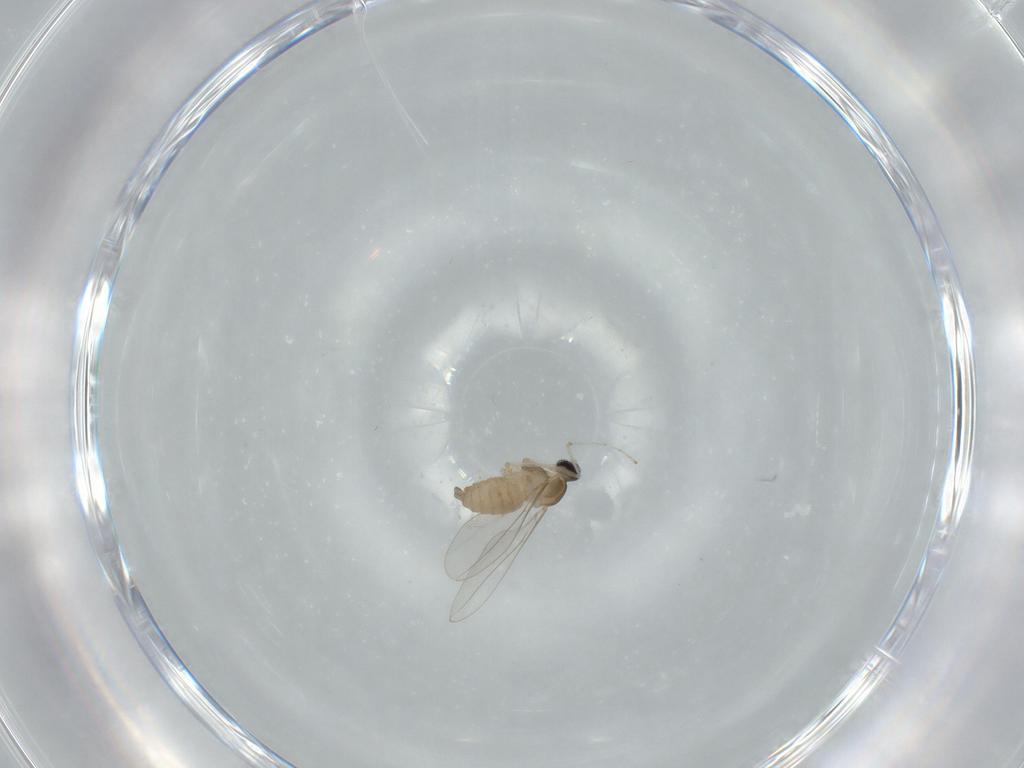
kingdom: Animalia
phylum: Arthropoda
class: Insecta
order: Diptera
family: Cecidomyiidae
